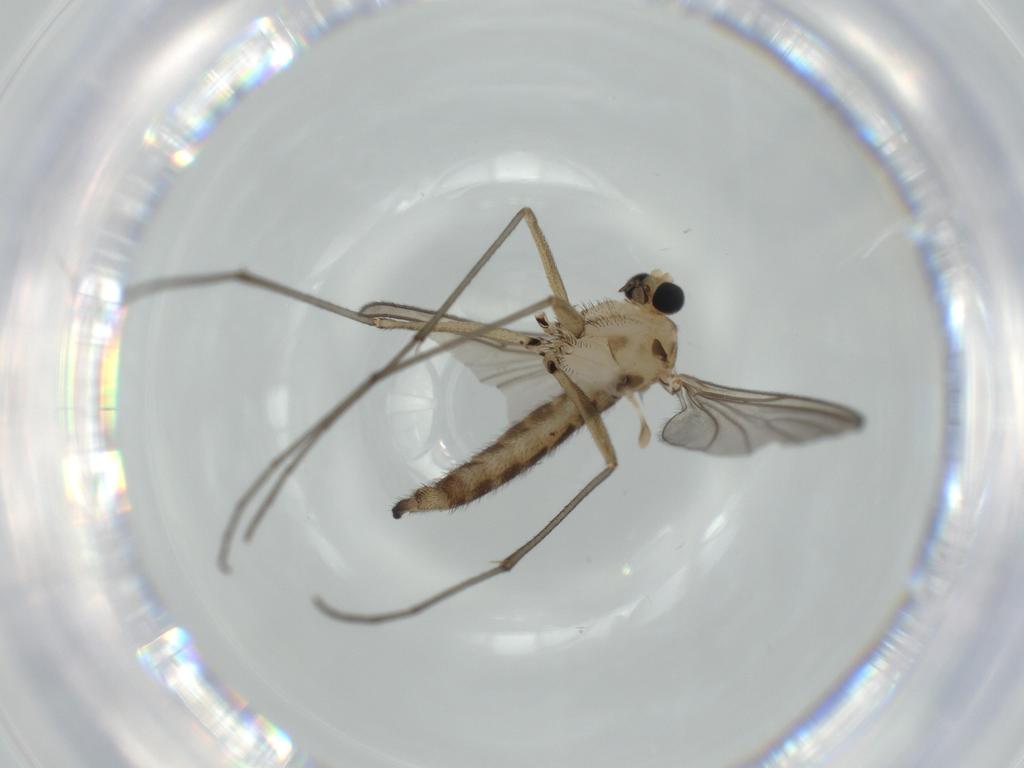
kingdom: Animalia
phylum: Arthropoda
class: Insecta
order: Diptera
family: Sciaridae
